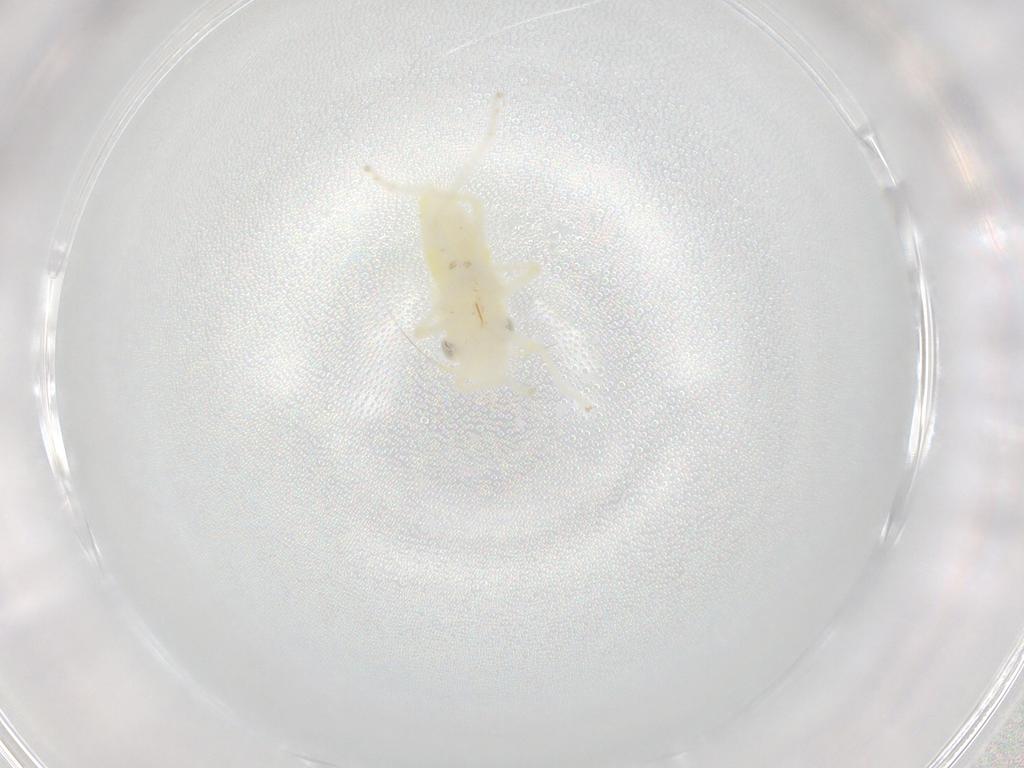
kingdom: Animalia
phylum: Arthropoda
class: Insecta
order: Hemiptera
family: Cicadellidae
